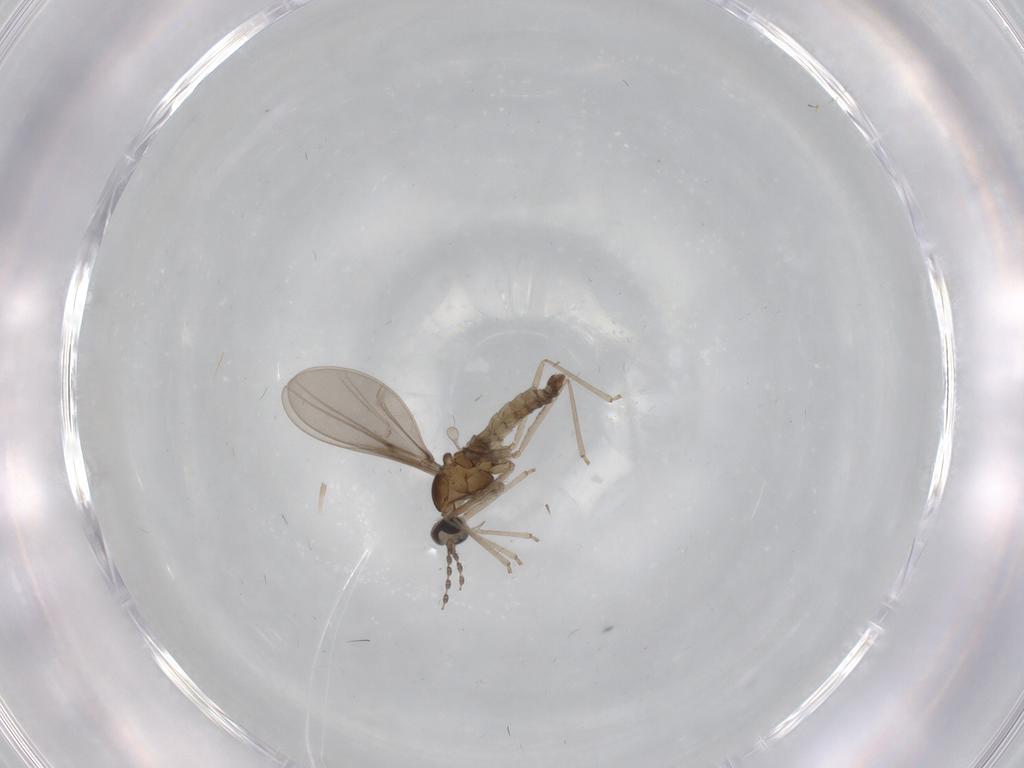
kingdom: Animalia
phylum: Arthropoda
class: Insecta
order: Diptera
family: Cecidomyiidae
